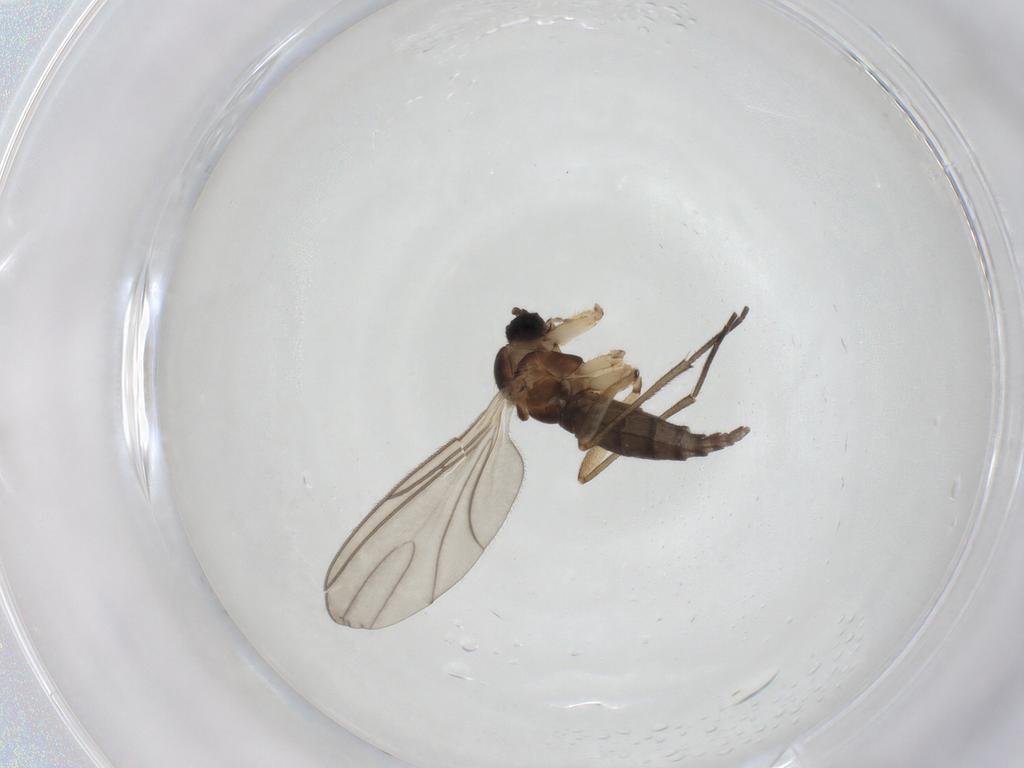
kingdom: Animalia
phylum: Arthropoda
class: Insecta
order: Diptera
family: Sciaridae
